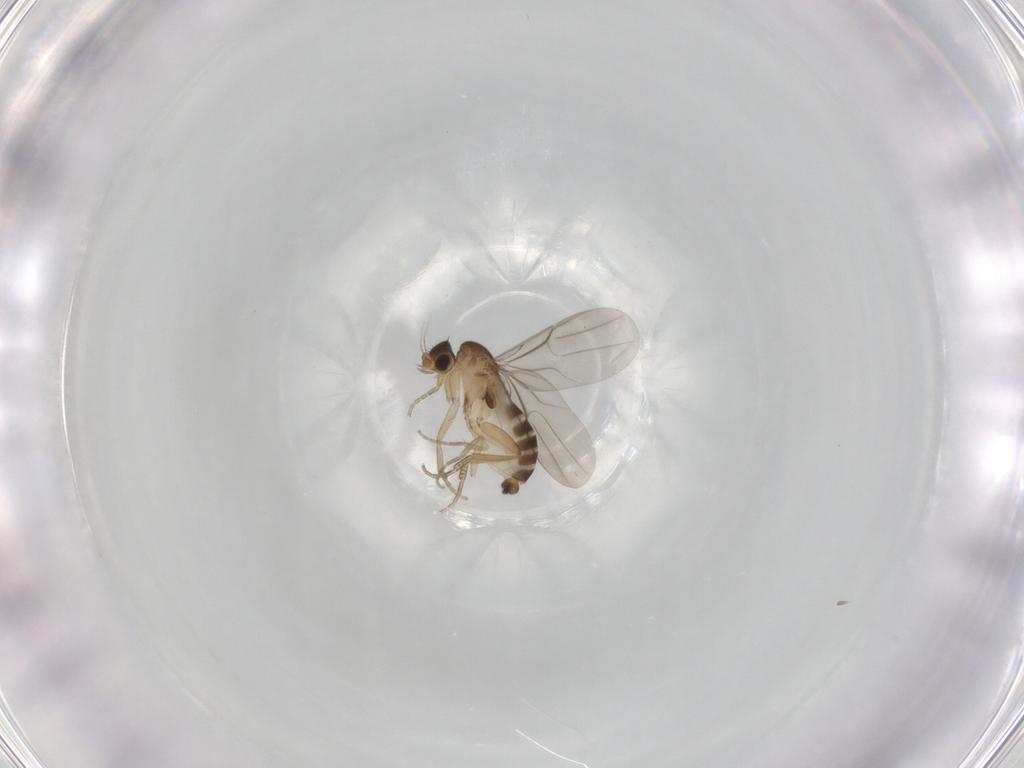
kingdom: Animalia
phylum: Arthropoda
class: Insecta
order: Diptera
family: Phoridae
